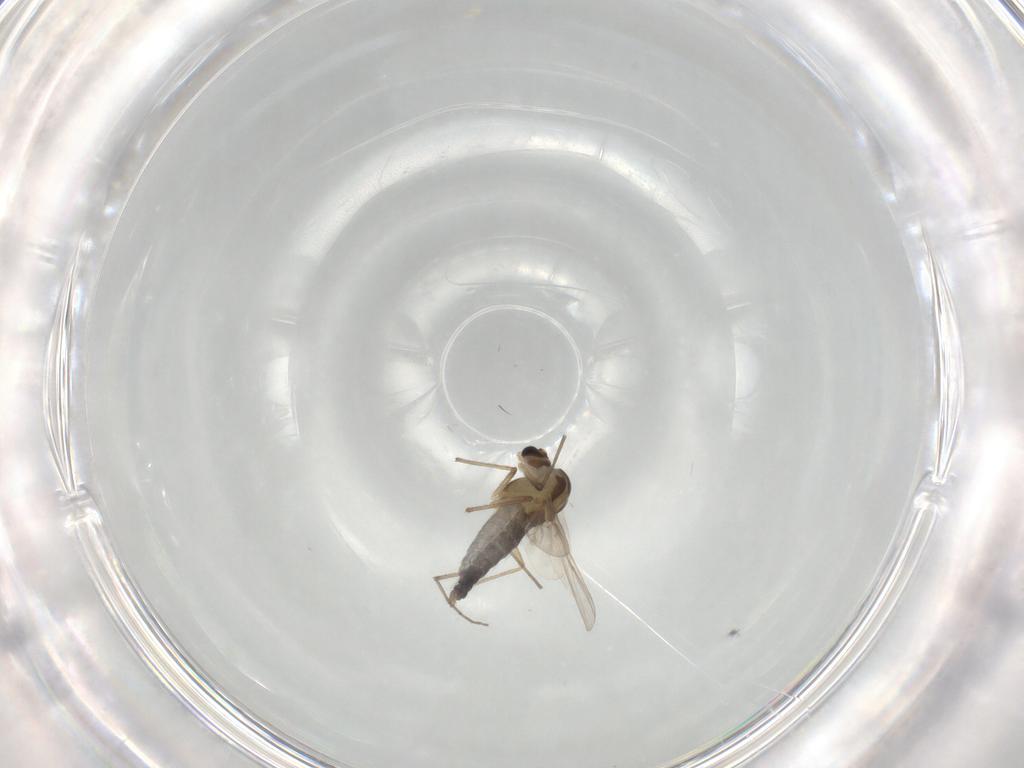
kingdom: Animalia
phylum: Arthropoda
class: Insecta
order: Diptera
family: Chironomidae
